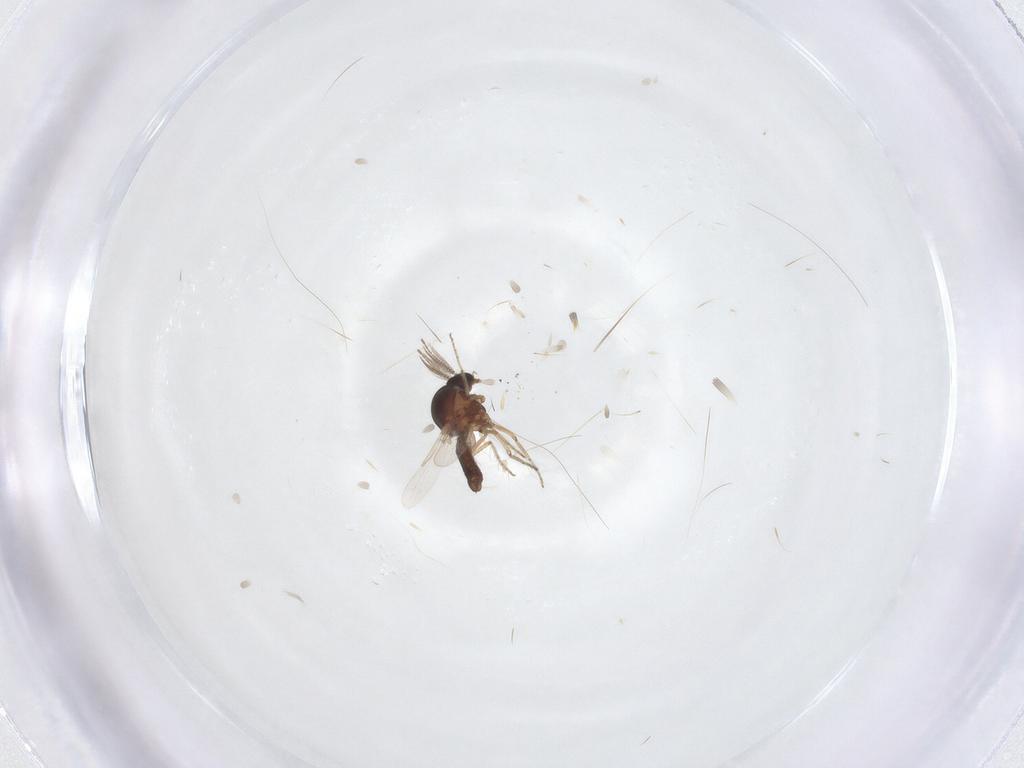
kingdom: Animalia
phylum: Arthropoda
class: Insecta
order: Diptera
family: Ceratopogonidae
